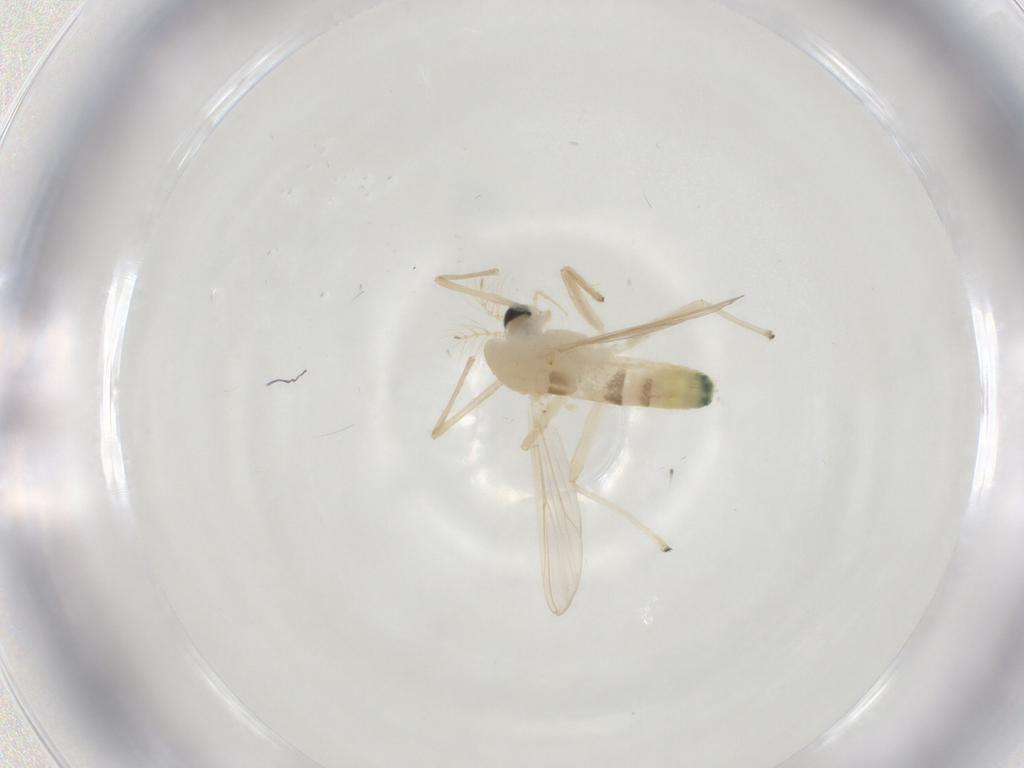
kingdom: Animalia
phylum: Arthropoda
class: Insecta
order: Diptera
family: Chironomidae
